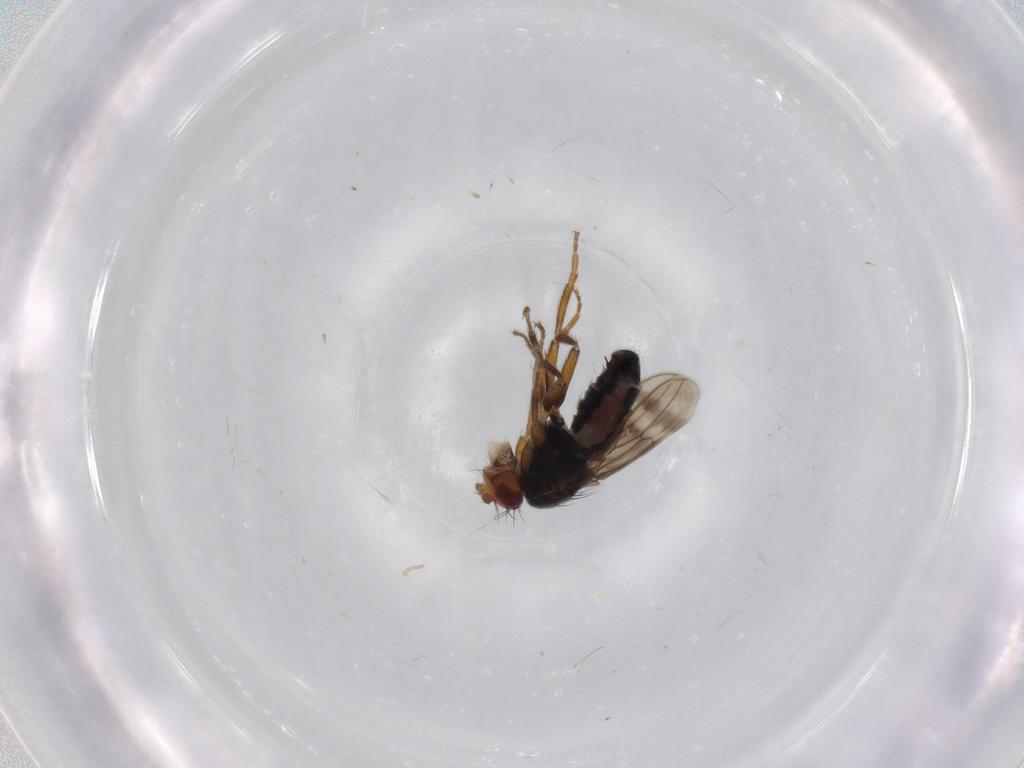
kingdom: Animalia
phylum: Arthropoda
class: Insecta
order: Diptera
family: Sphaeroceridae
